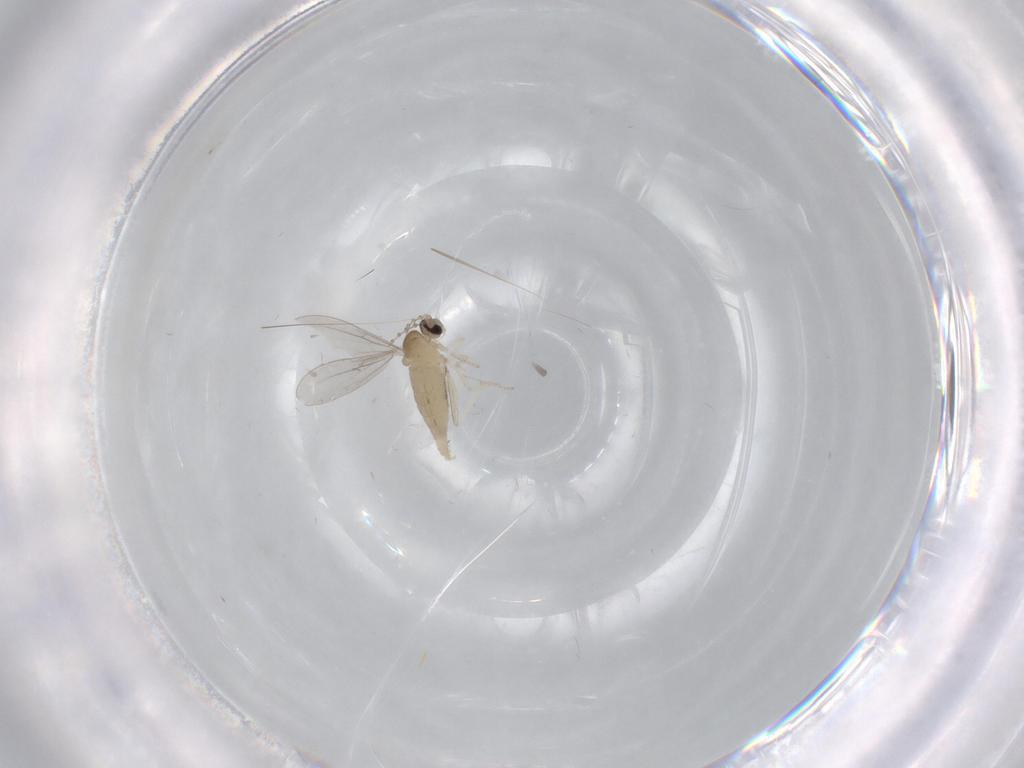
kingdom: Animalia
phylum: Arthropoda
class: Insecta
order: Diptera
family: Cecidomyiidae
